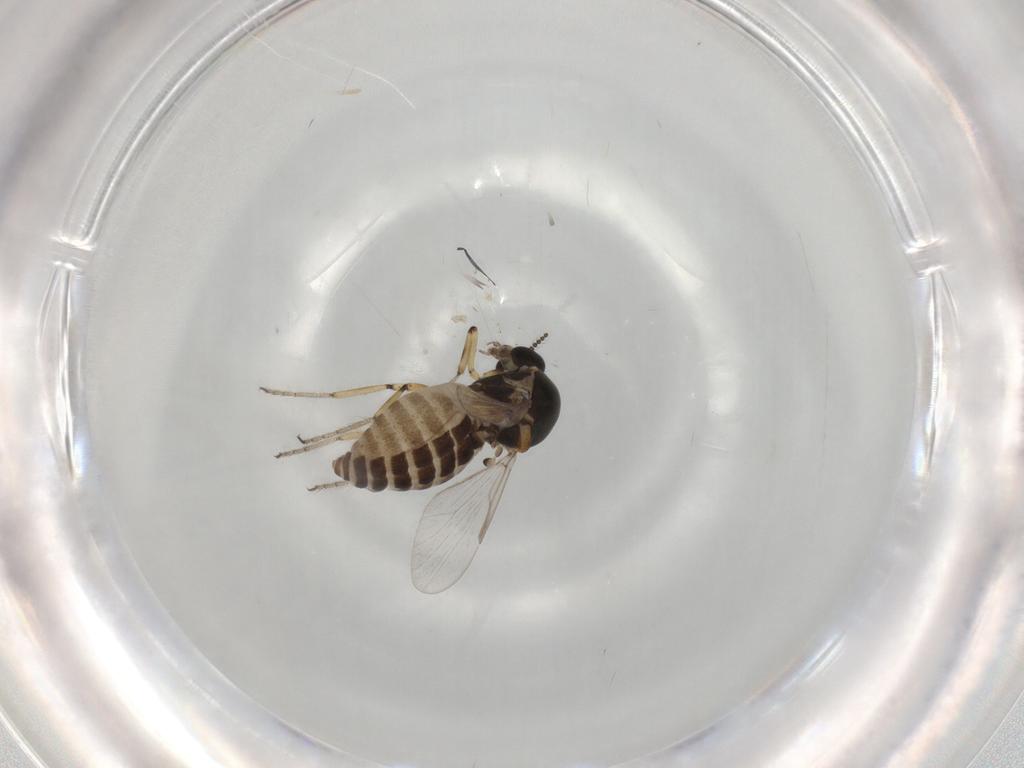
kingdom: Animalia
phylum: Arthropoda
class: Insecta
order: Diptera
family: Ceratopogonidae
